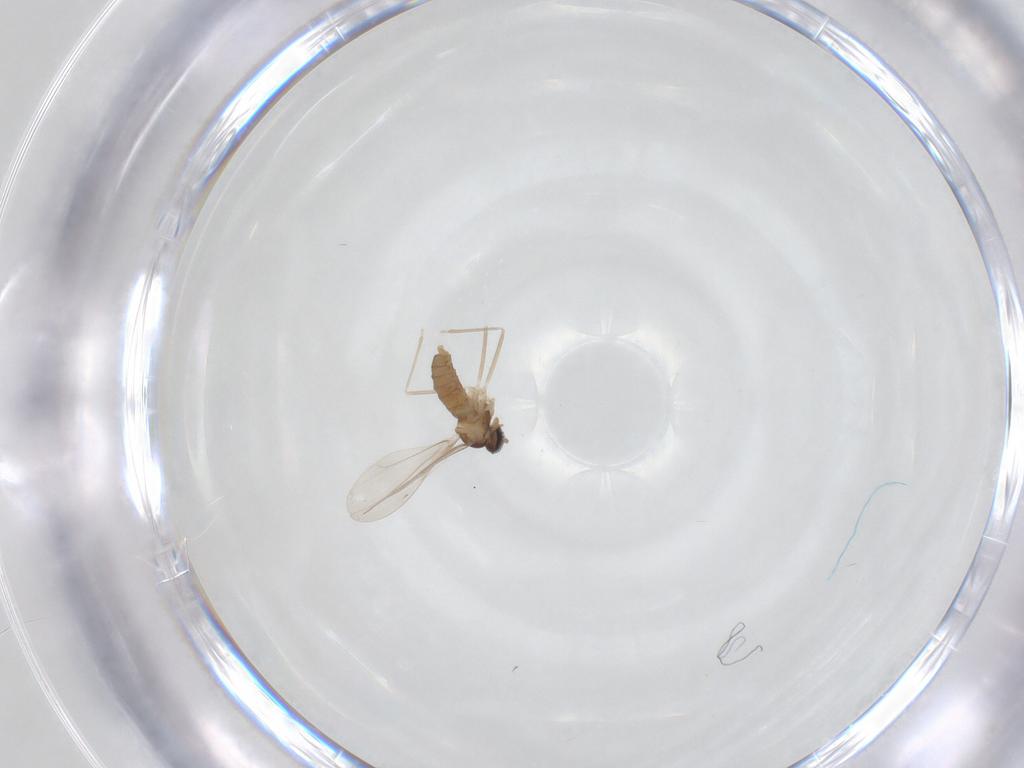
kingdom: Animalia
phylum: Arthropoda
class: Insecta
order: Diptera
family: Cecidomyiidae
